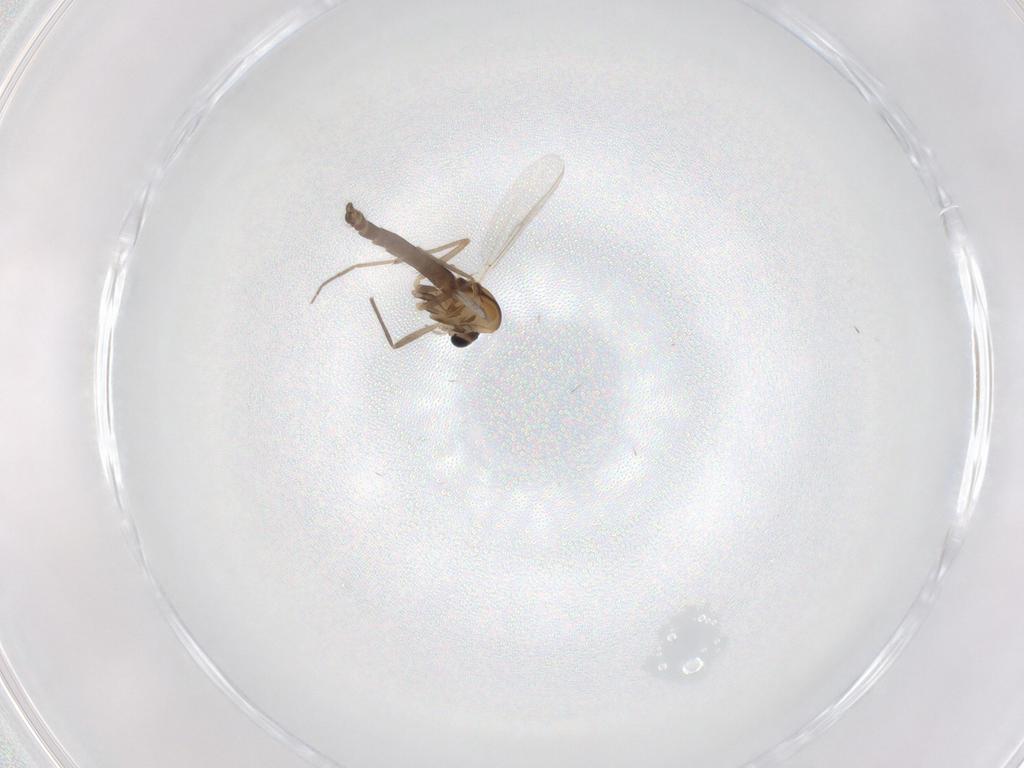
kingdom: Animalia
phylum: Arthropoda
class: Insecta
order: Diptera
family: Chironomidae
